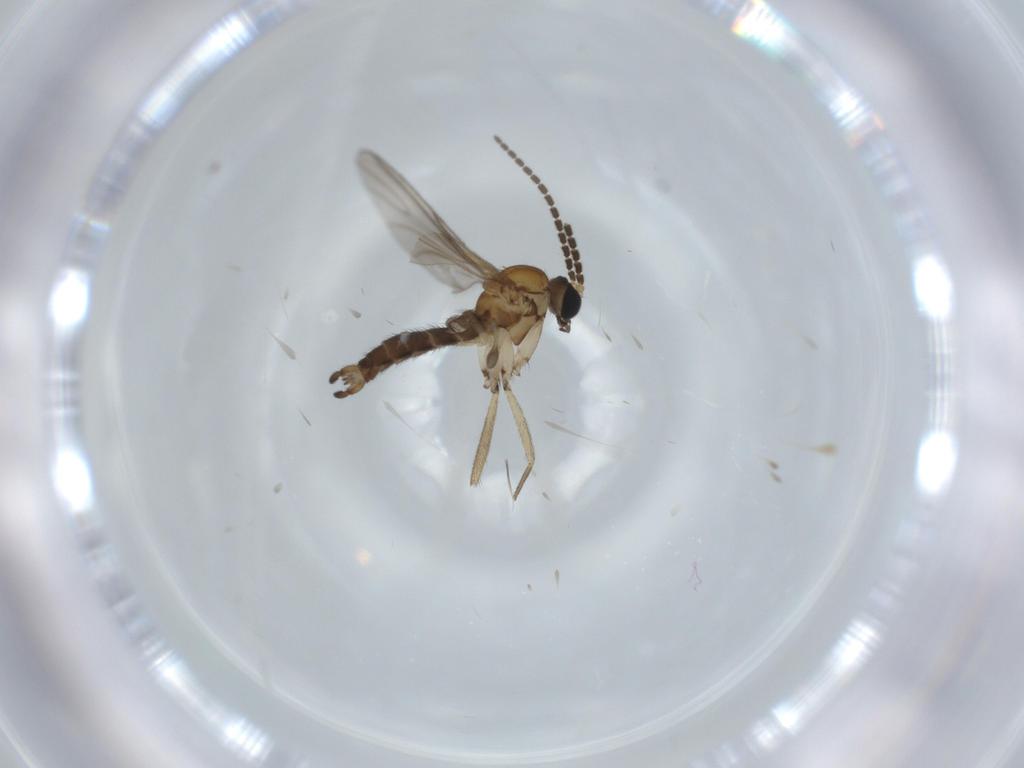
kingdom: Animalia
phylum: Arthropoda
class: Insecta
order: Diptera
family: Sciaridae
